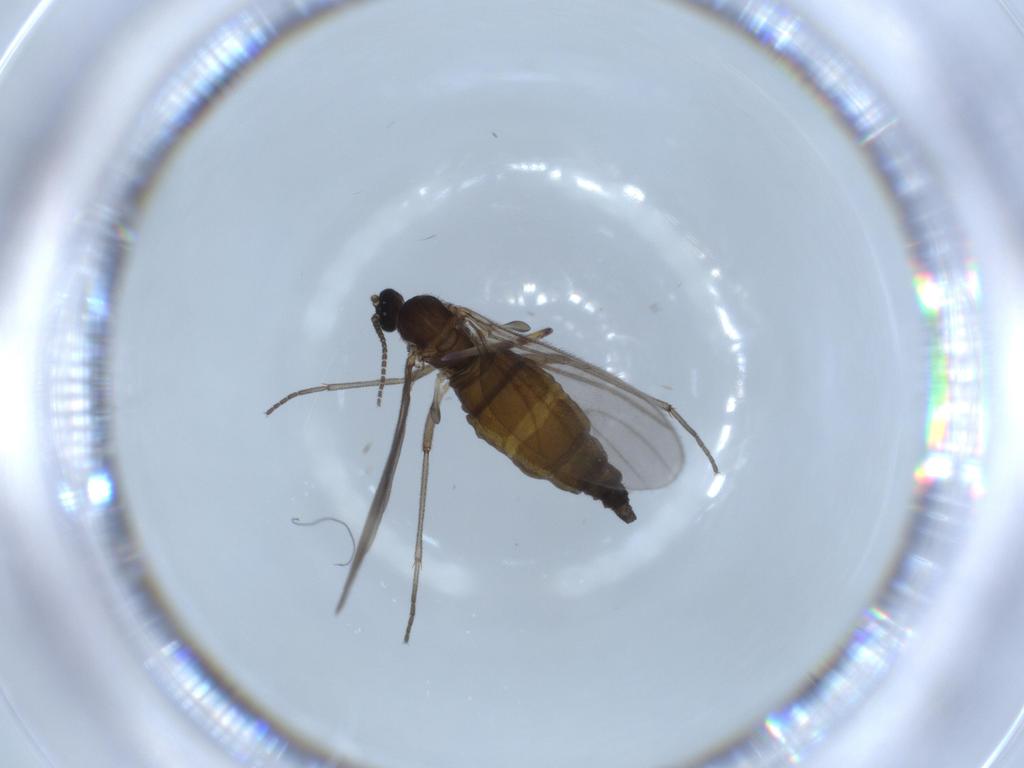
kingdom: Animalia
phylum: Arthropoda
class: Insecta
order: Diptera
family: Sciaridae
